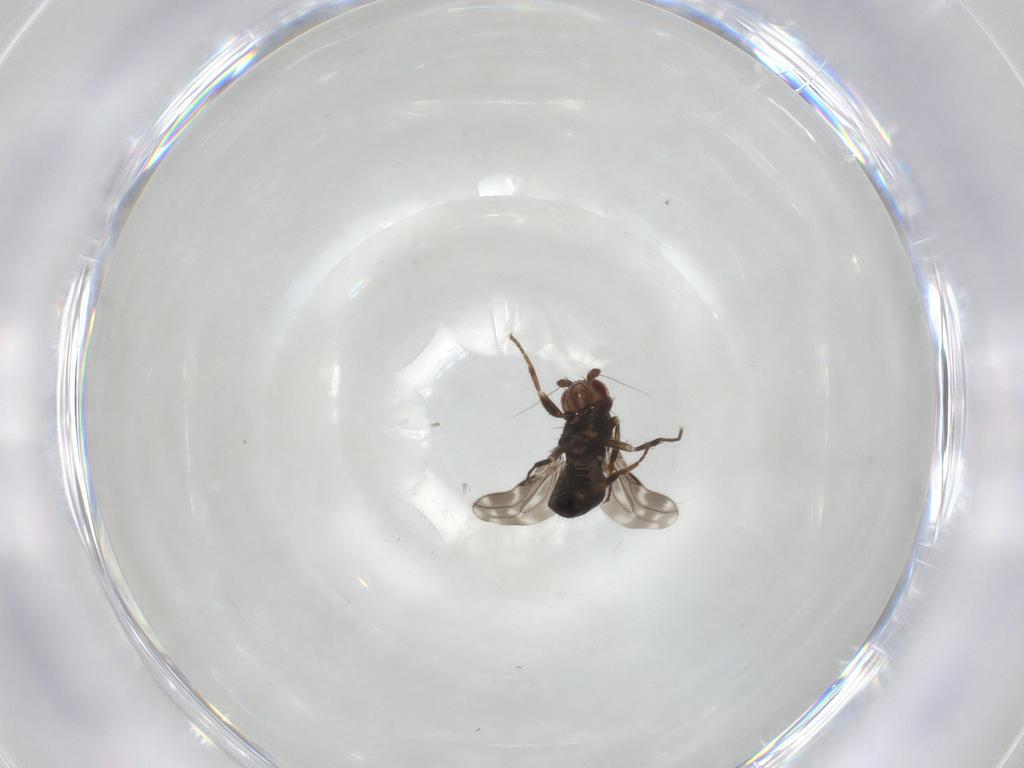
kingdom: Animalia
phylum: Arthropoda
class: Insecta
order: Diptera
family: Sphaeroceridae
